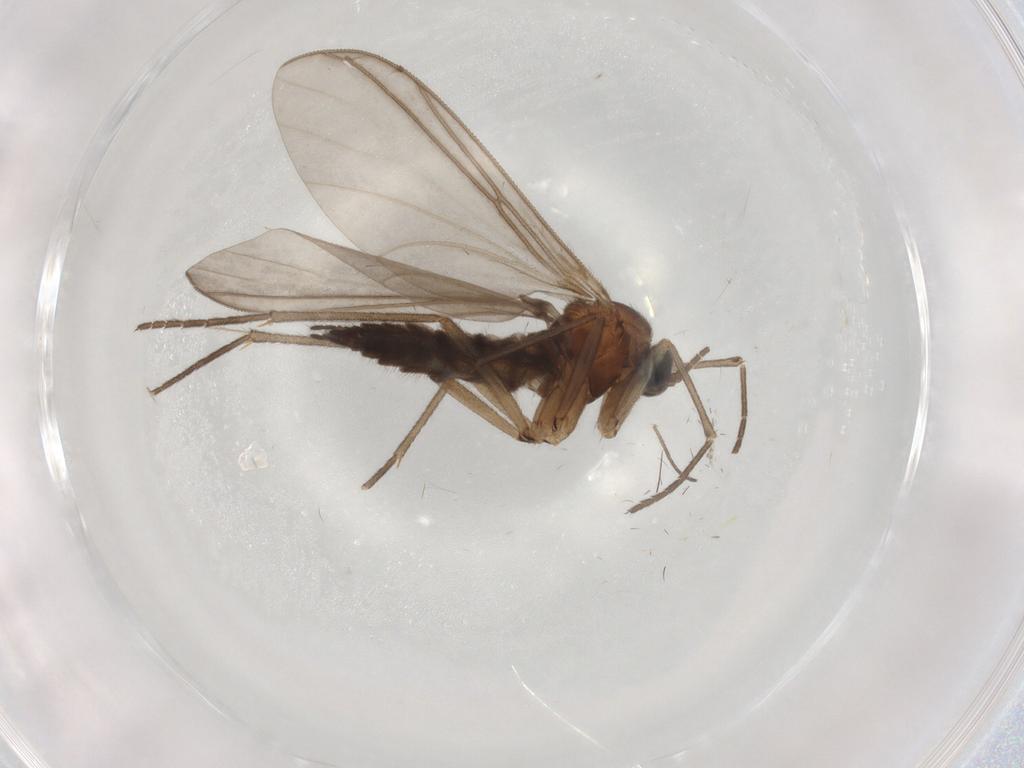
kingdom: Animalia
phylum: Arthropoda
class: Insecta
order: Diptera
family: Sciaridae
